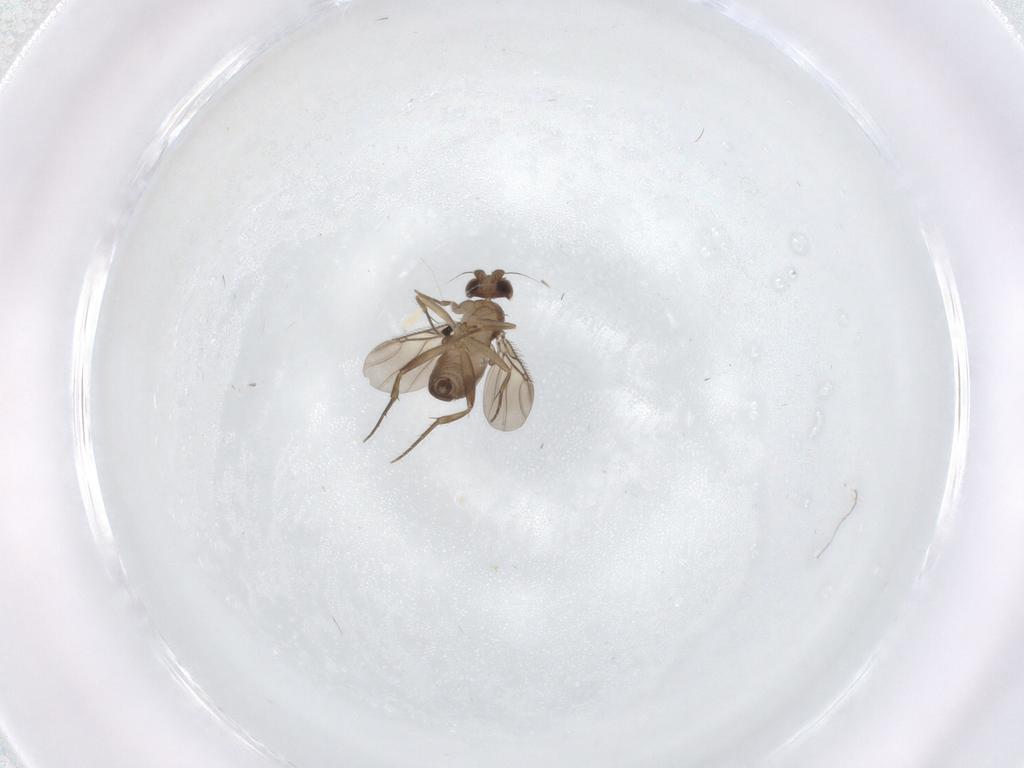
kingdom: Animalia
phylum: Arthropoda
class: Insecta
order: Diptera
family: Phoridae
